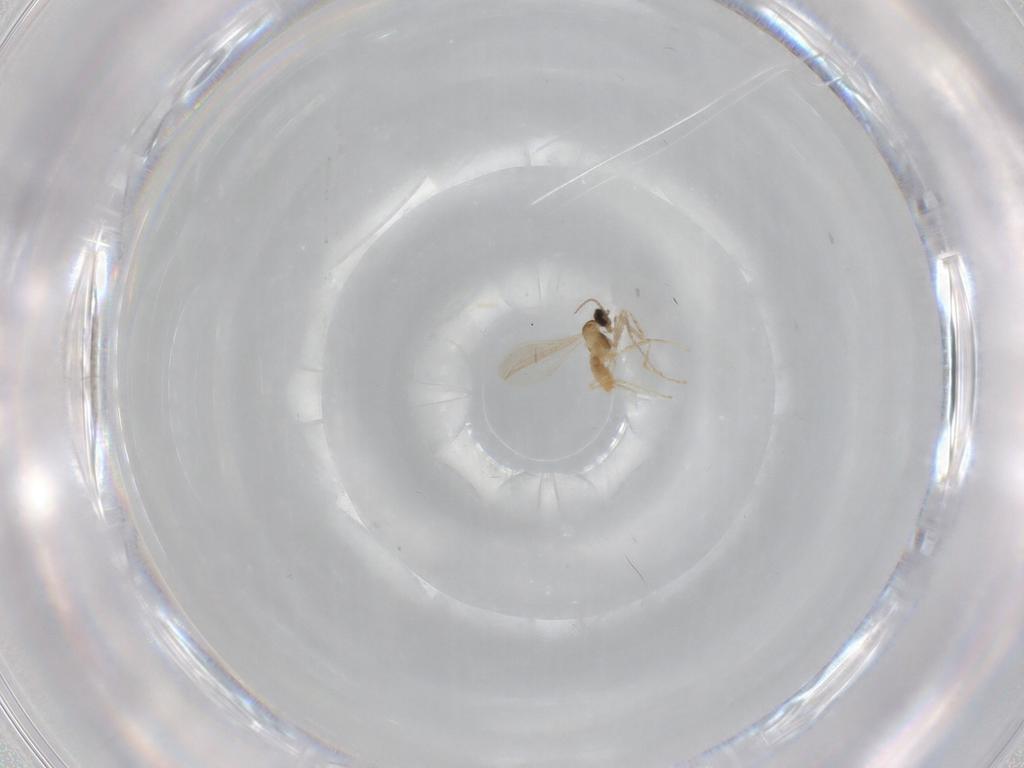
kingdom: Animalia
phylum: Arthropoda
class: Insecta
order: Diptera
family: Cecidomyiidae
